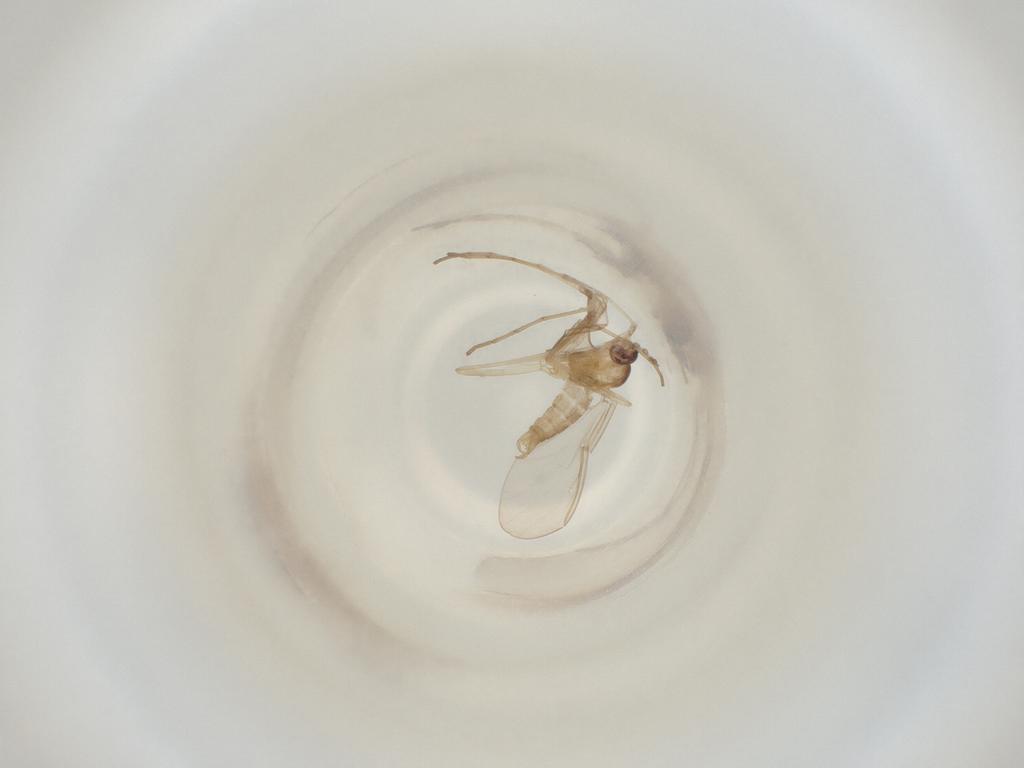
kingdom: Animalia
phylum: Arthropoda
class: Insecta
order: Diptera
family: Cecidomyiidae
